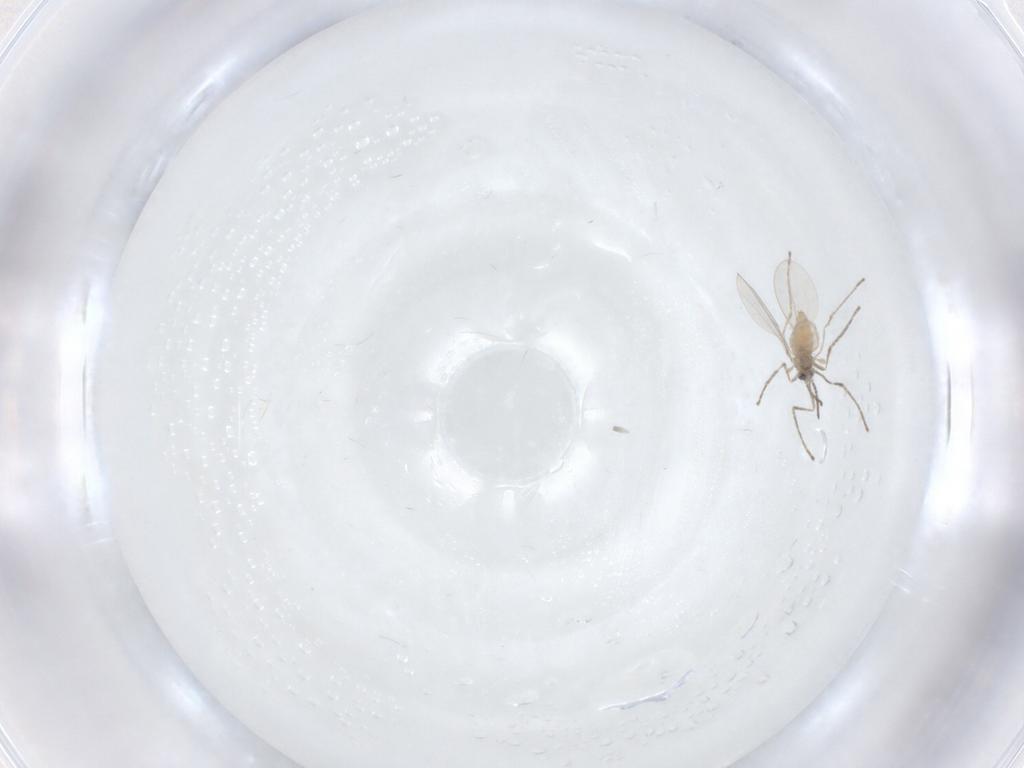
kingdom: Animalia
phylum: Arthropoda
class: Insecta
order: Diptera
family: Cecidomyiidae
